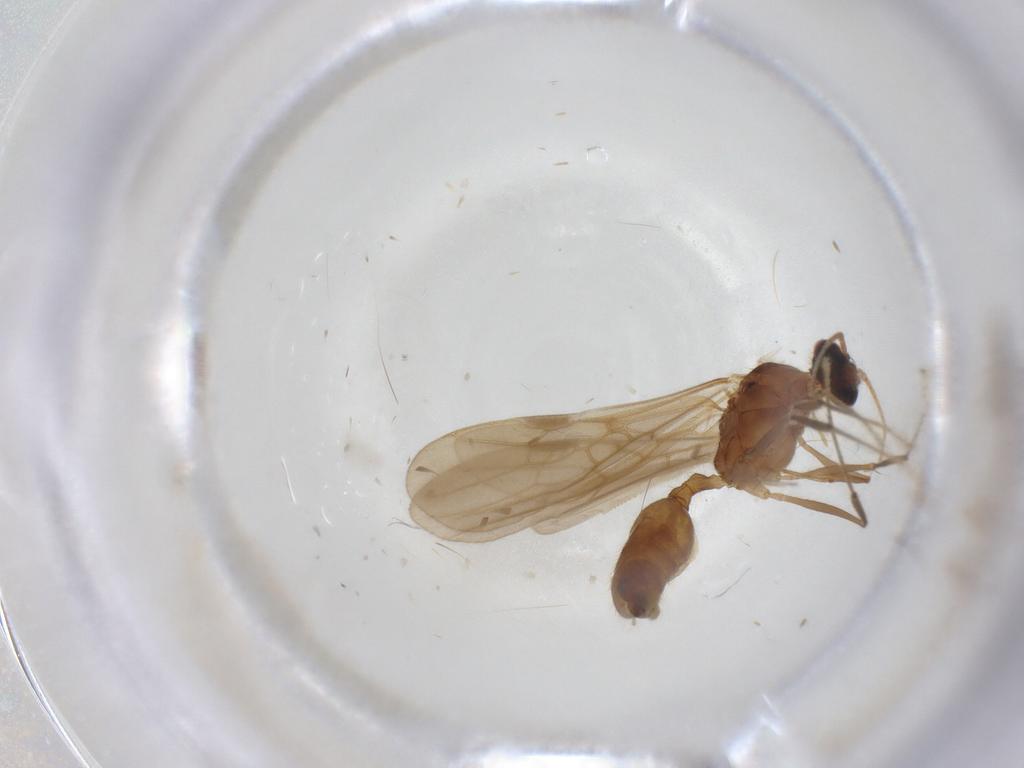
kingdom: Animalia
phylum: Arthropoda
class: Insecta
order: Hymenoptera
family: Formicidae
